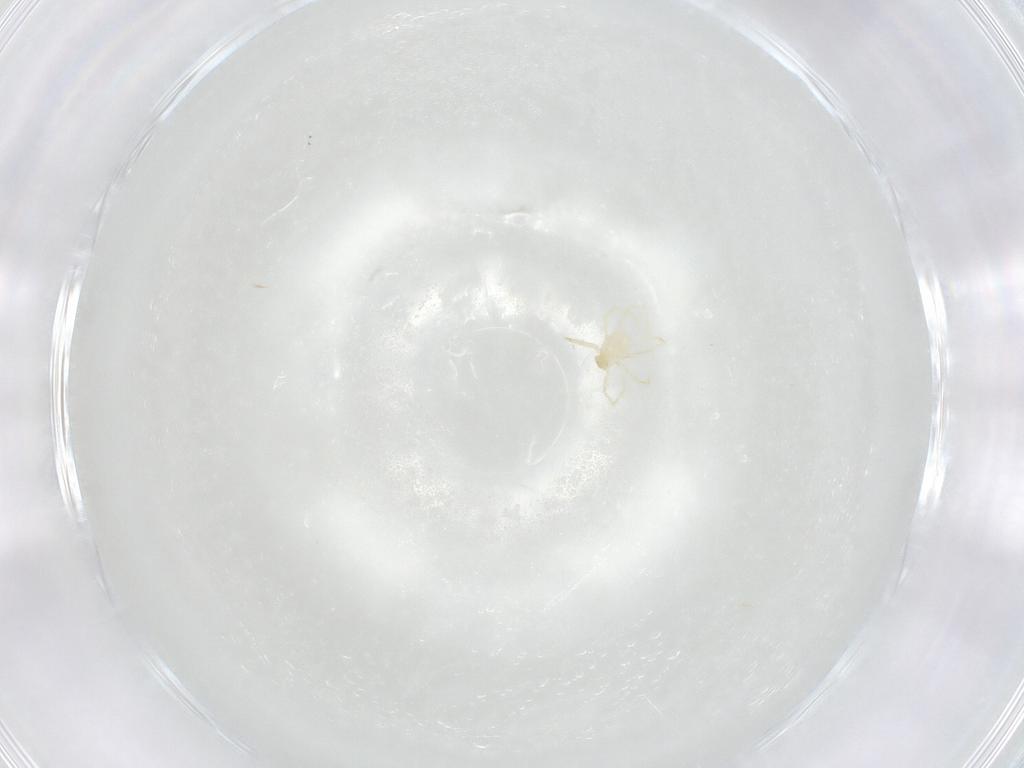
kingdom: Animalia
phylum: Arthropoda
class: Arachnida
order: Trombidiformes
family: Erythraeidae
